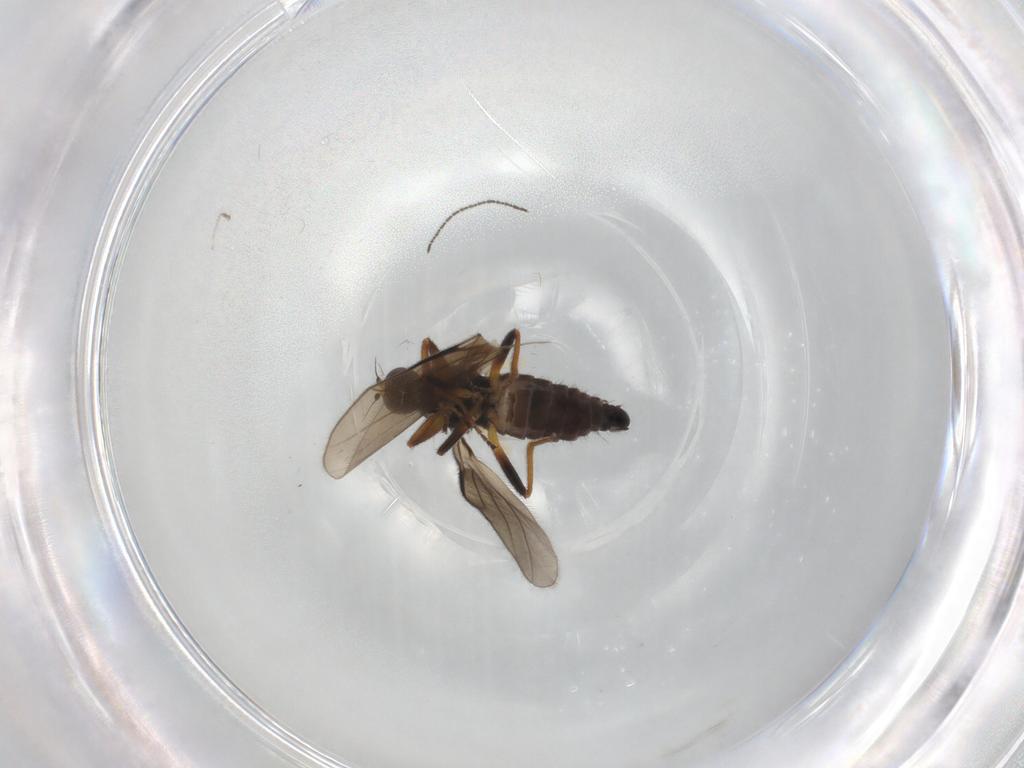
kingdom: Animalia
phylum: Arthropoda
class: Insecta
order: Diptera
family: Hybotidae
